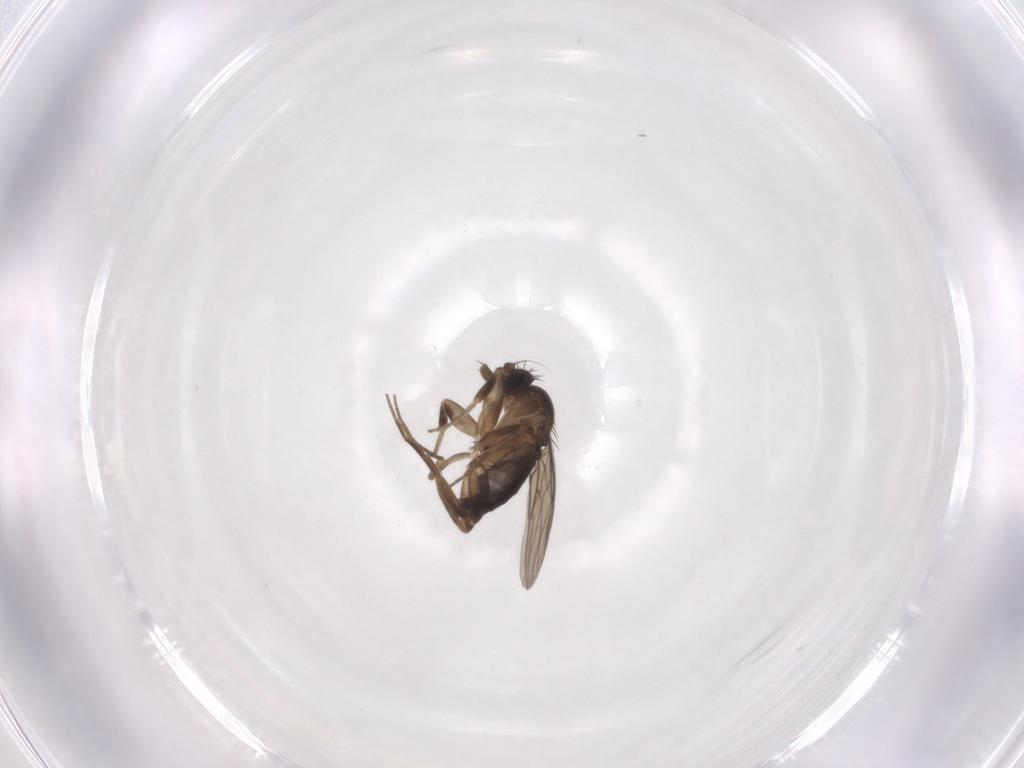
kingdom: Animalia
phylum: Arthropoda
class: Insecta
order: Diptera
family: Phoridae
